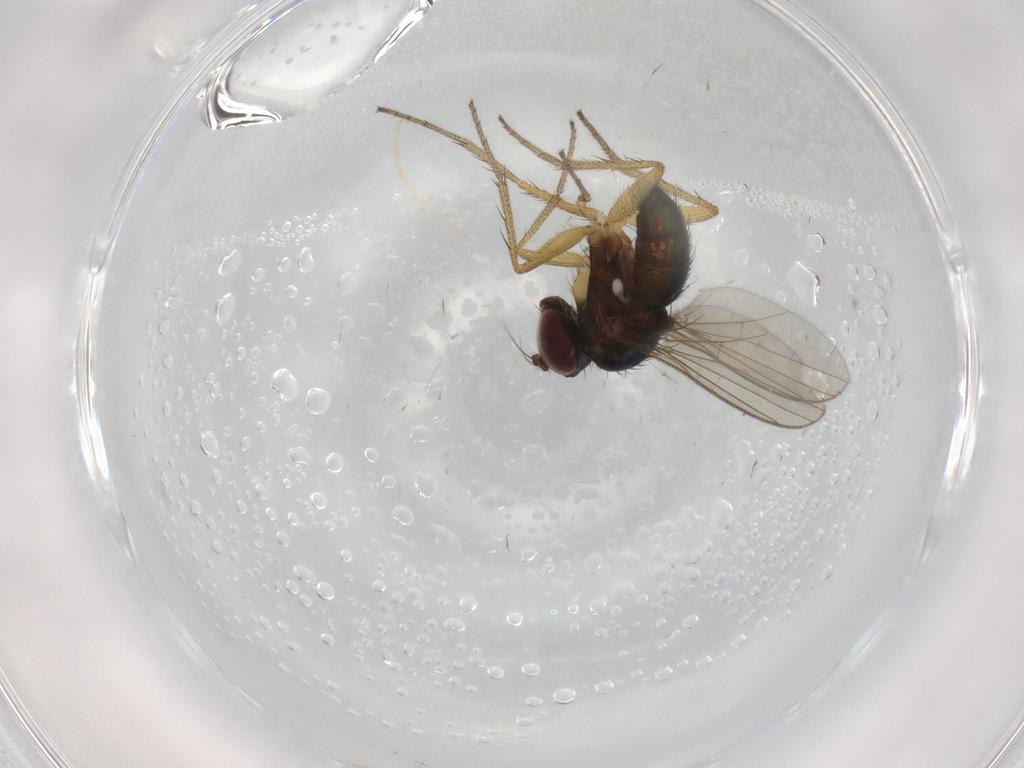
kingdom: Animalia
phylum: Arthropoda
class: Insecta
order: Diptera
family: Dolichopodidae
